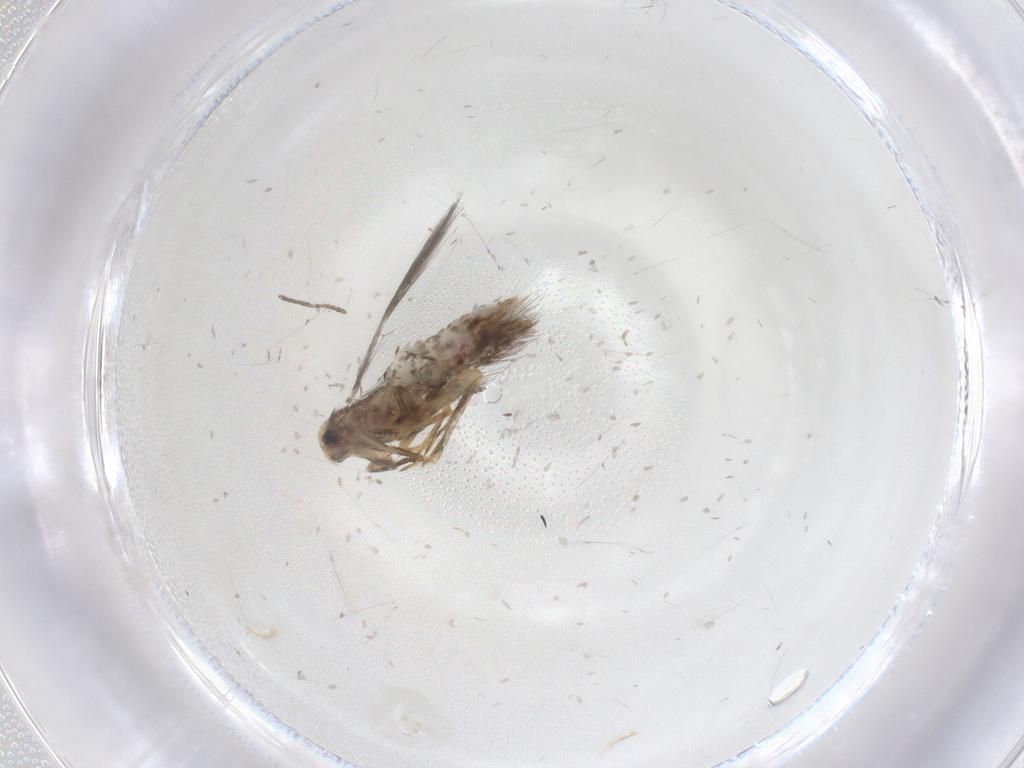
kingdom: Animalia
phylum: Arthropoda
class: Insecta
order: Lepidoptera
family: Nepticulidae
